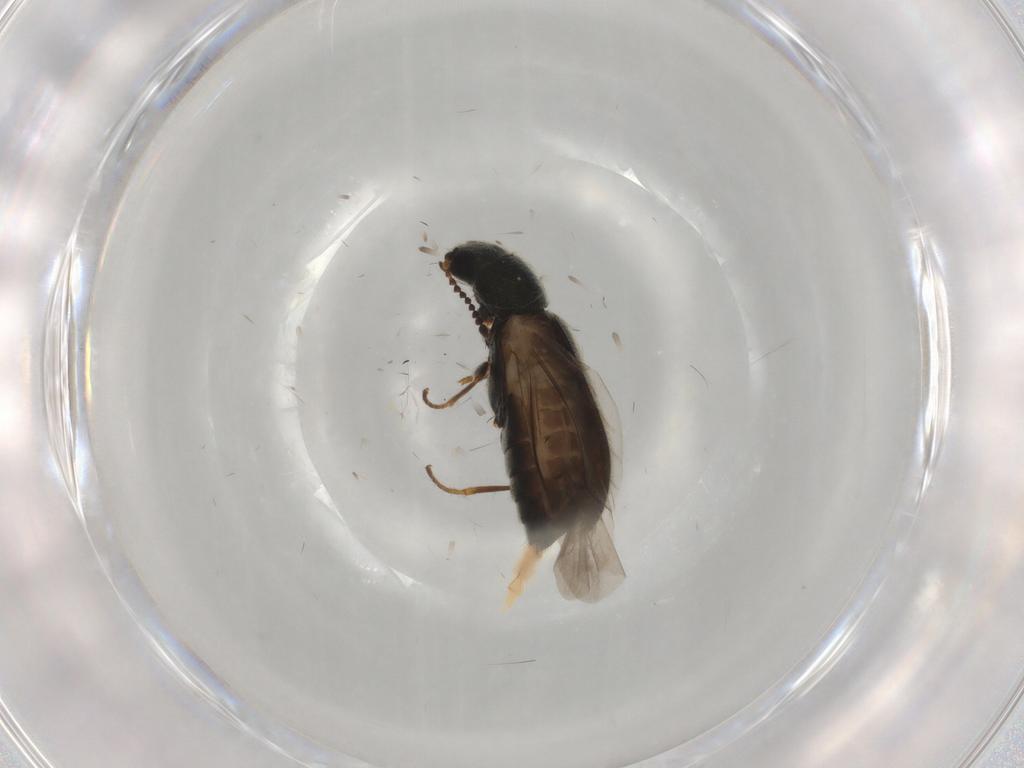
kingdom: Animalia
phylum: Arthropoda
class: Insecta
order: Coleoptera
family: Melyridae
